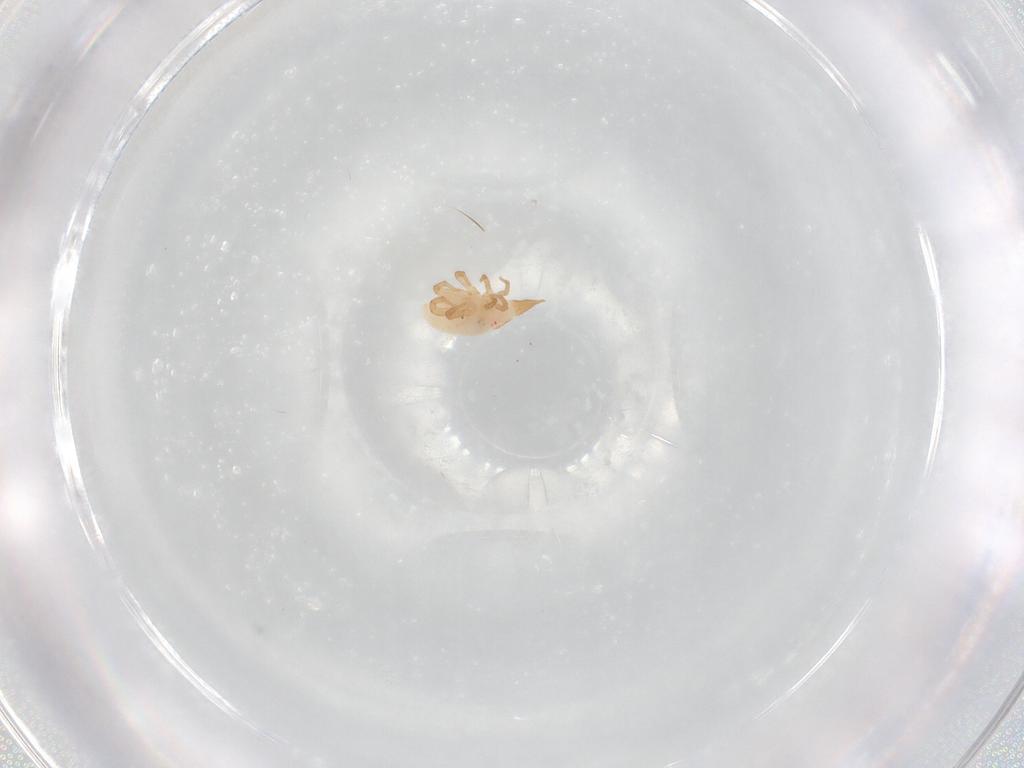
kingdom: Animalia
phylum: Arthropoda
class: Arachnida
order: Trombidiformes
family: Bdellidae
